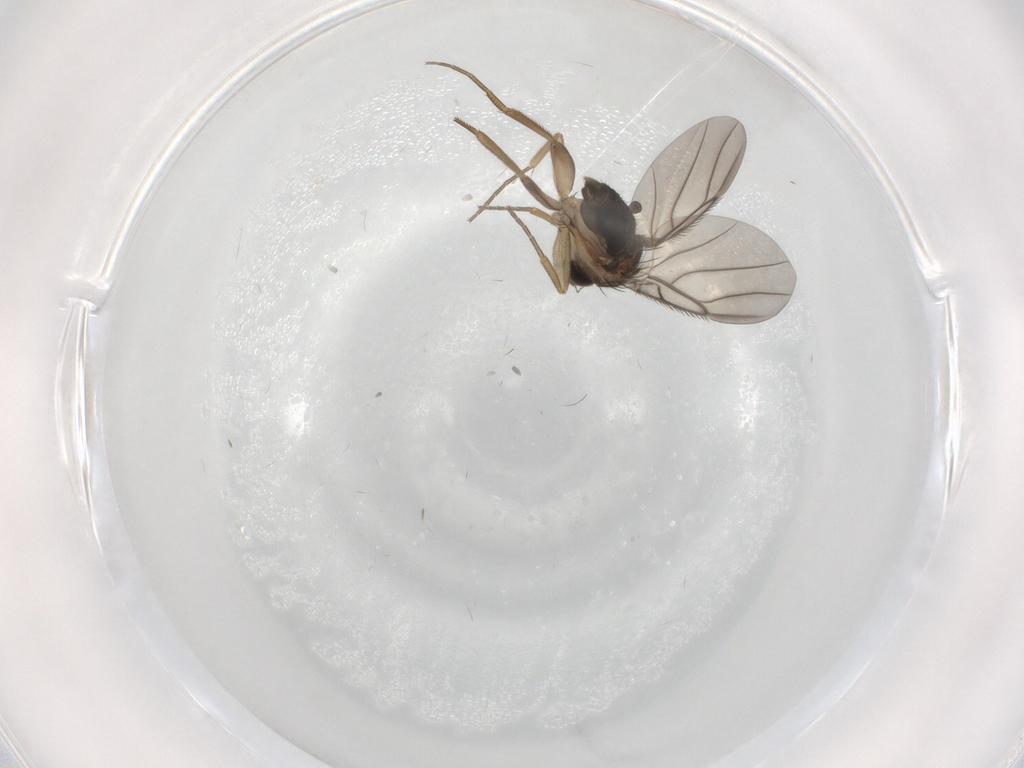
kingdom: Animalia
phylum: Arthropoda
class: Insecta
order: Diptera
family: Phoridae
